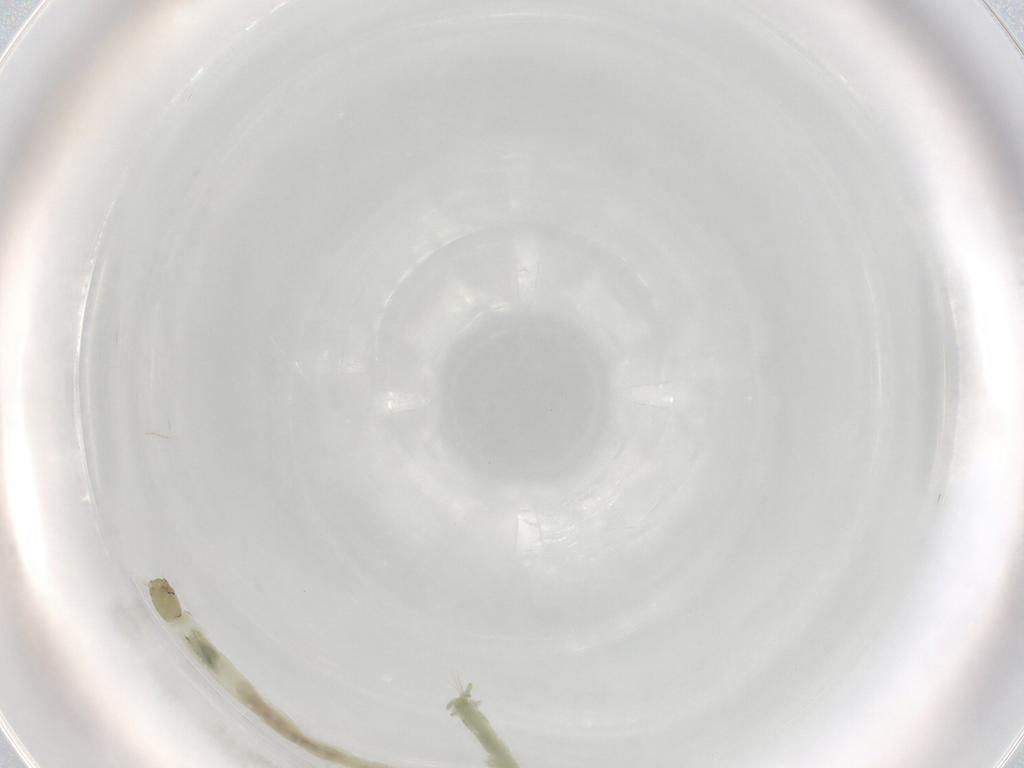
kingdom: Animalia
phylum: Arthropoda
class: Insecta
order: Diptera
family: Chironomidae
